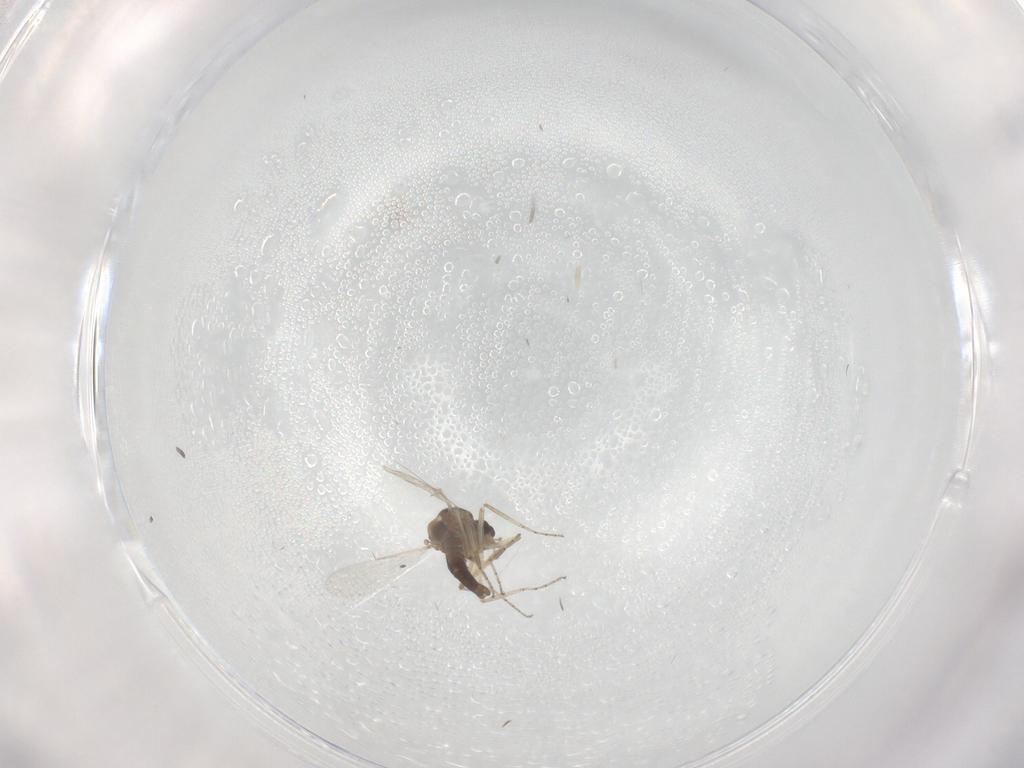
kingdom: Animalia
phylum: Arthropoda
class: Insecta
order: Diptera
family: Ceratopogonidae
